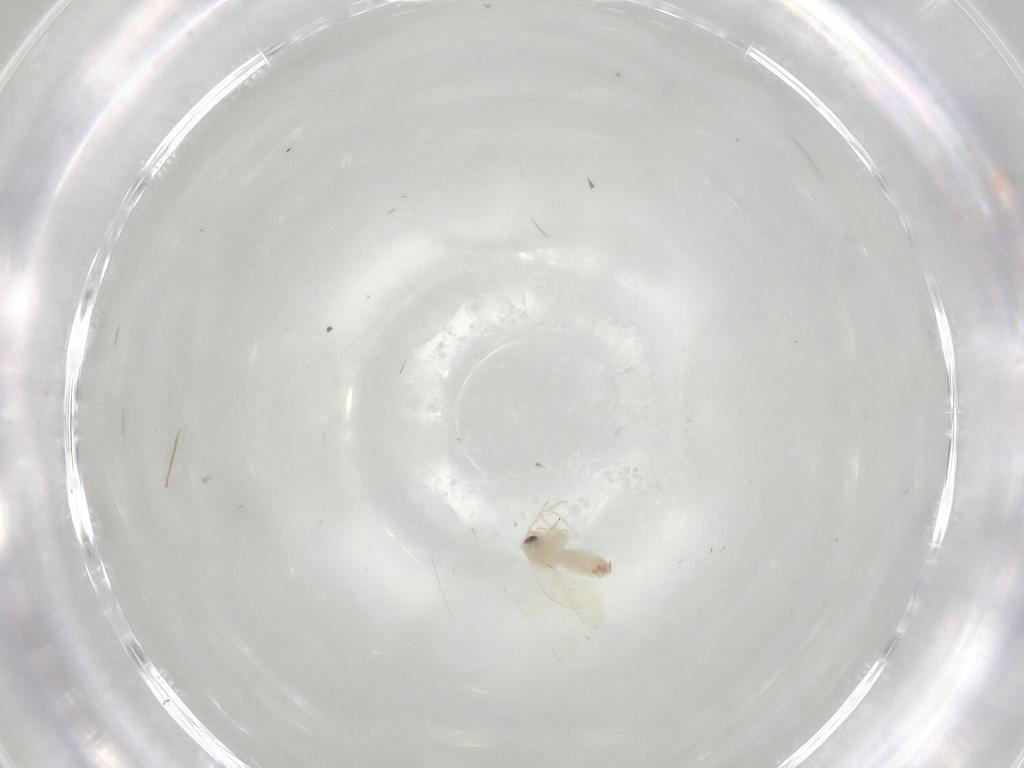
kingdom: Animalia
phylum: Arthropoda
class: Insecta
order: Hemiptera
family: Aleyrodidae
